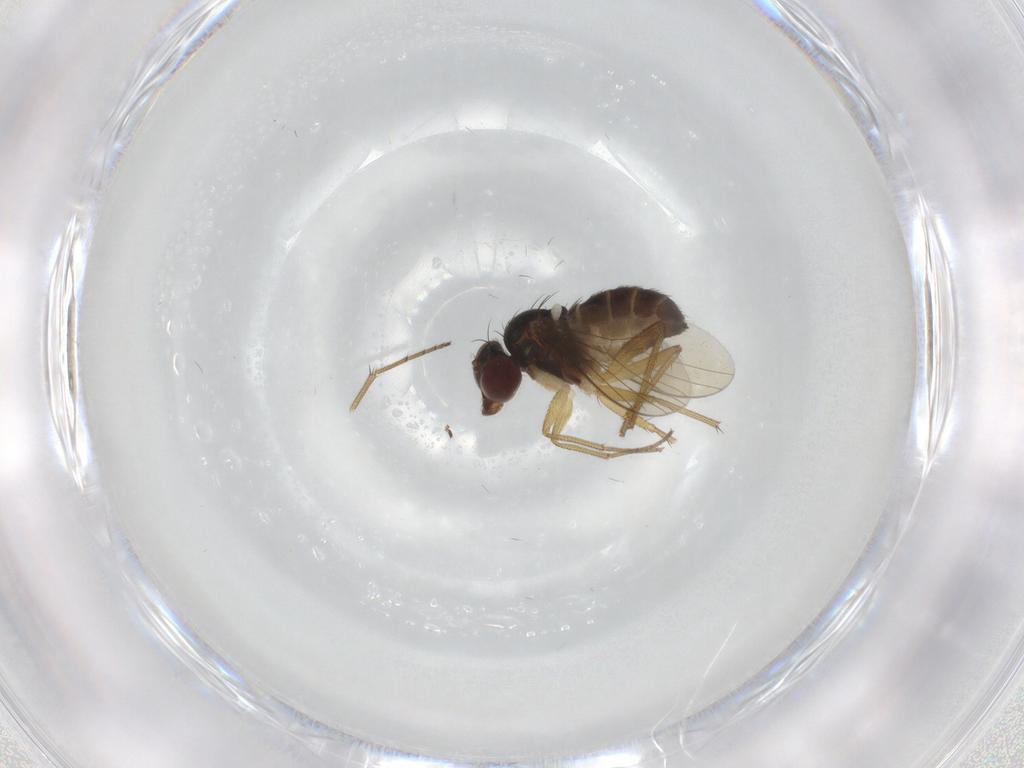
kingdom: Animalia
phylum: Arthropoda
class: Insecta
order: Diptera
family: Dolichopodidae
